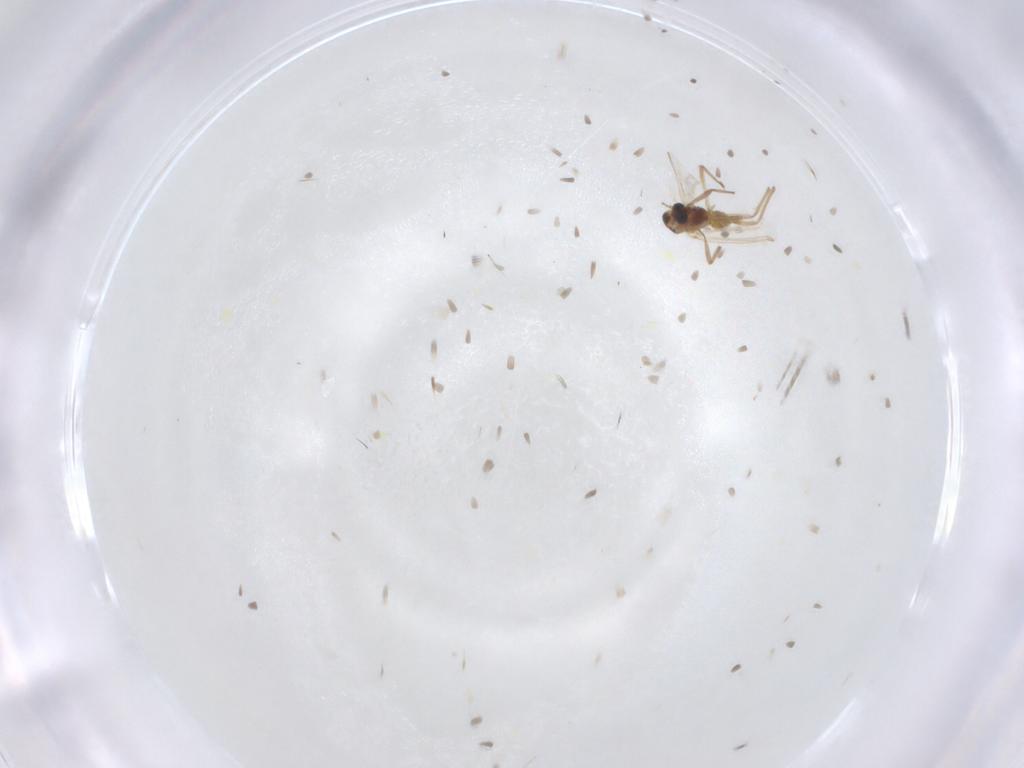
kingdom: Animalia
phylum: Arthropoda
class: Insecta
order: Diptera
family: Chironomidae
